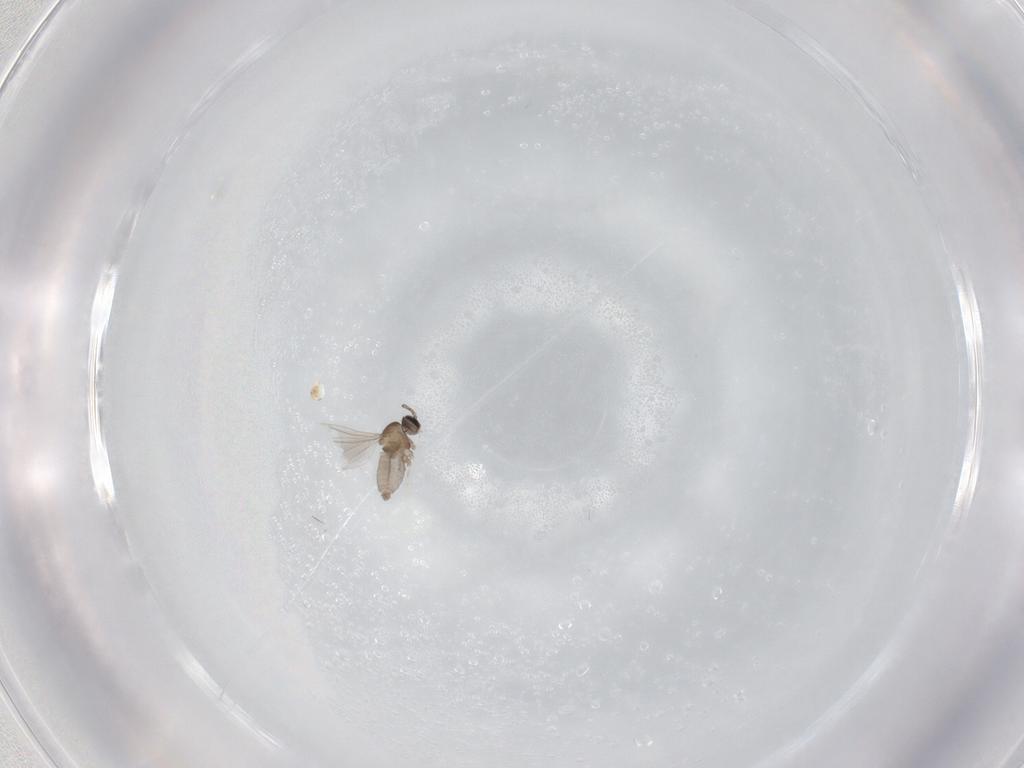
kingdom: Animalia
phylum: Arthropoda
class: Insecta
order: Diptera
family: Cecidomyiidae
